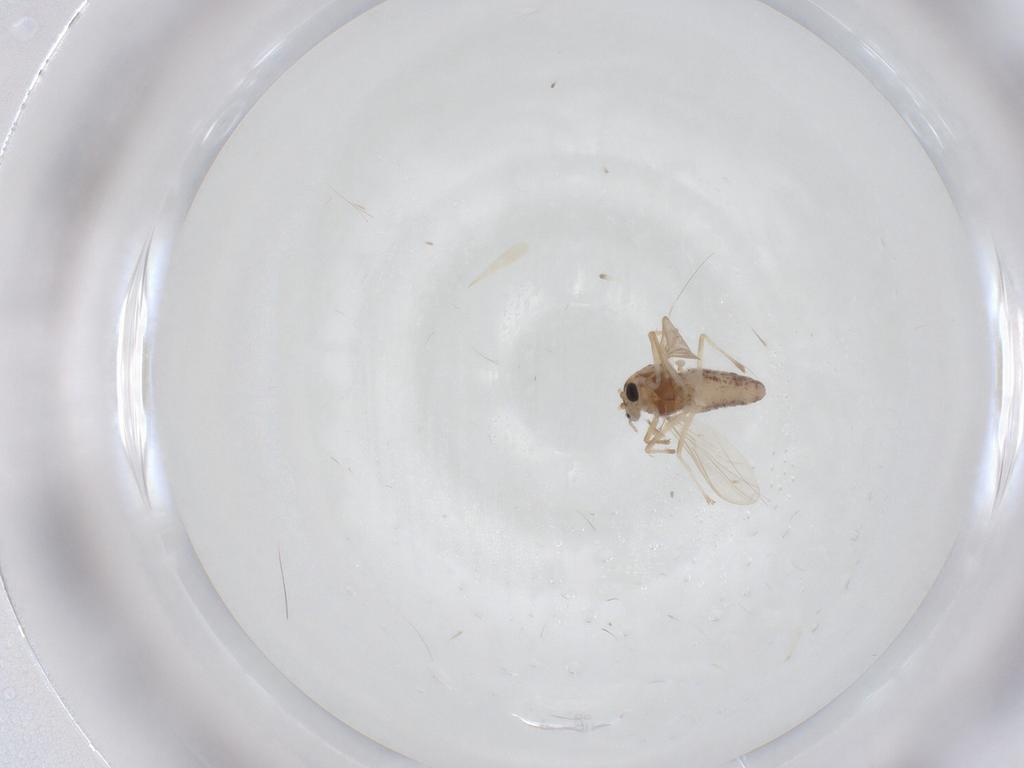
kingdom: Animalia
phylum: Arthropoda
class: Insecta
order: Diptera
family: Chironomidae
